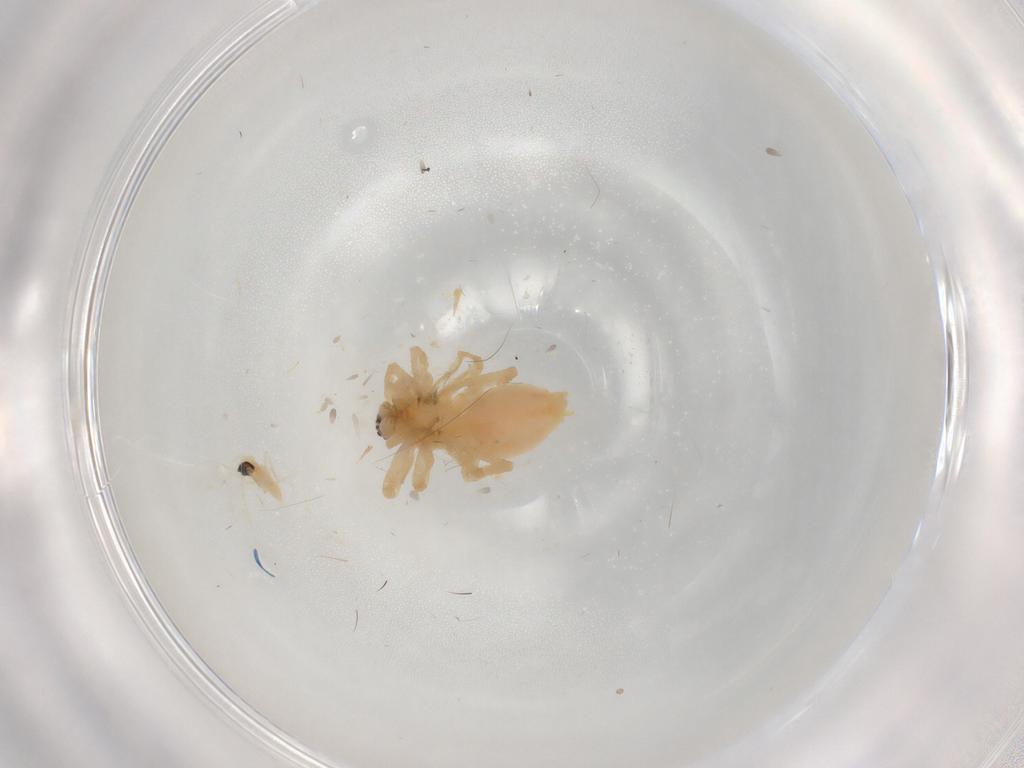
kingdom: Animalia
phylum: Arthropoda
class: Arachnida
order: Araneae
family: Anyphaenidae
